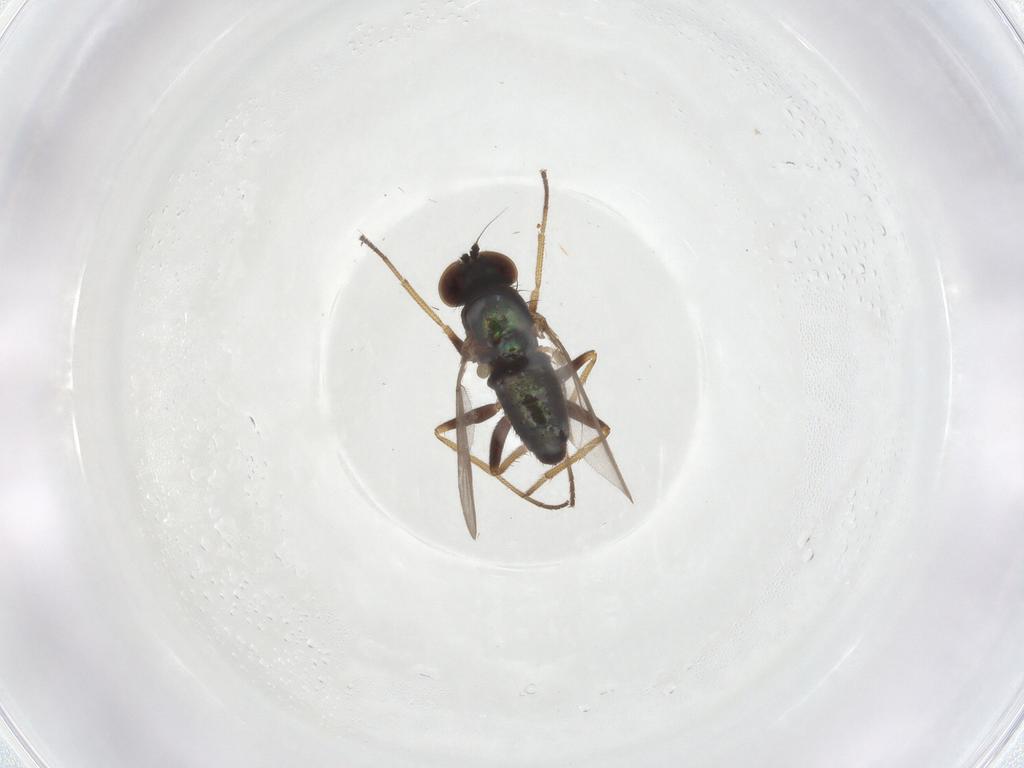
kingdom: Animalia
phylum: Arthropoda
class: Insecta
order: Diptera
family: Dolichopodidae
